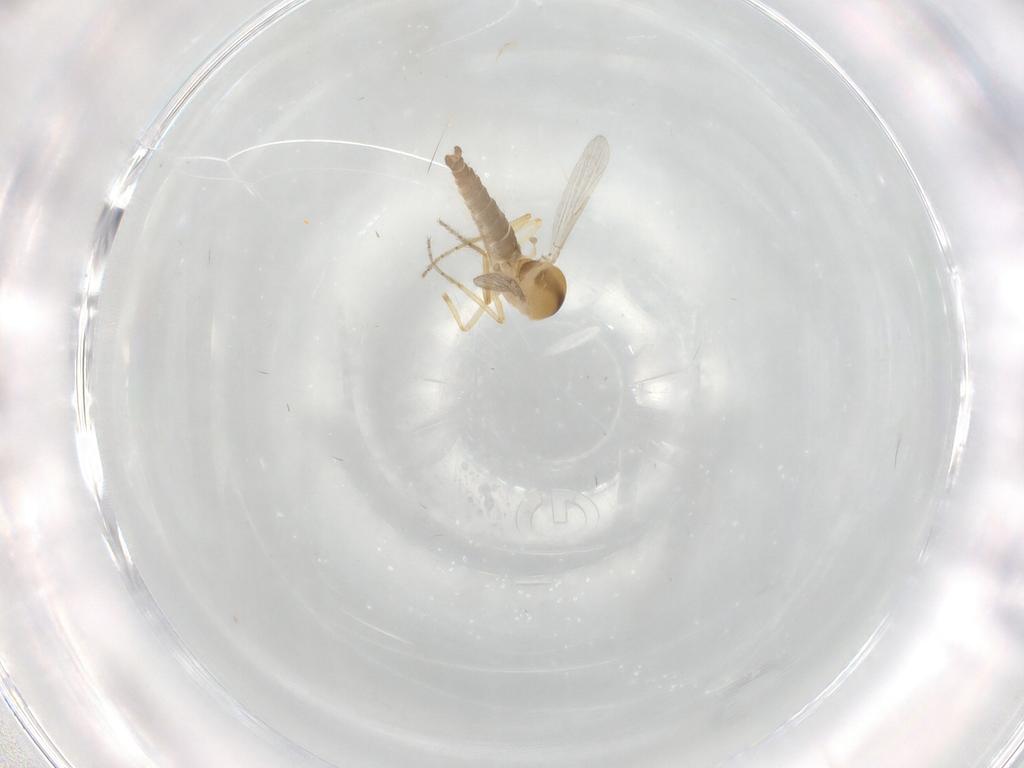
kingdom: Animalia
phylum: Arthropoda
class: Insecta
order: Diptera
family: Ceratopogonidae
